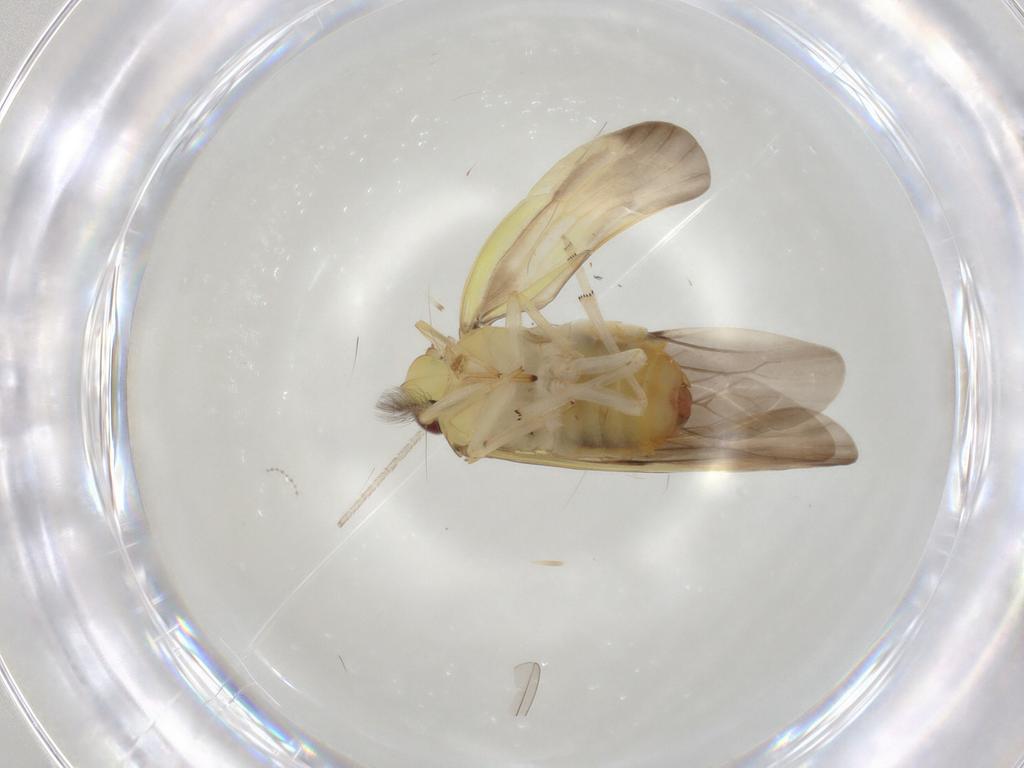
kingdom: Animalia
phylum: Arthropoda
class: Insecta
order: Orthoptera
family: Trigonidiidae
